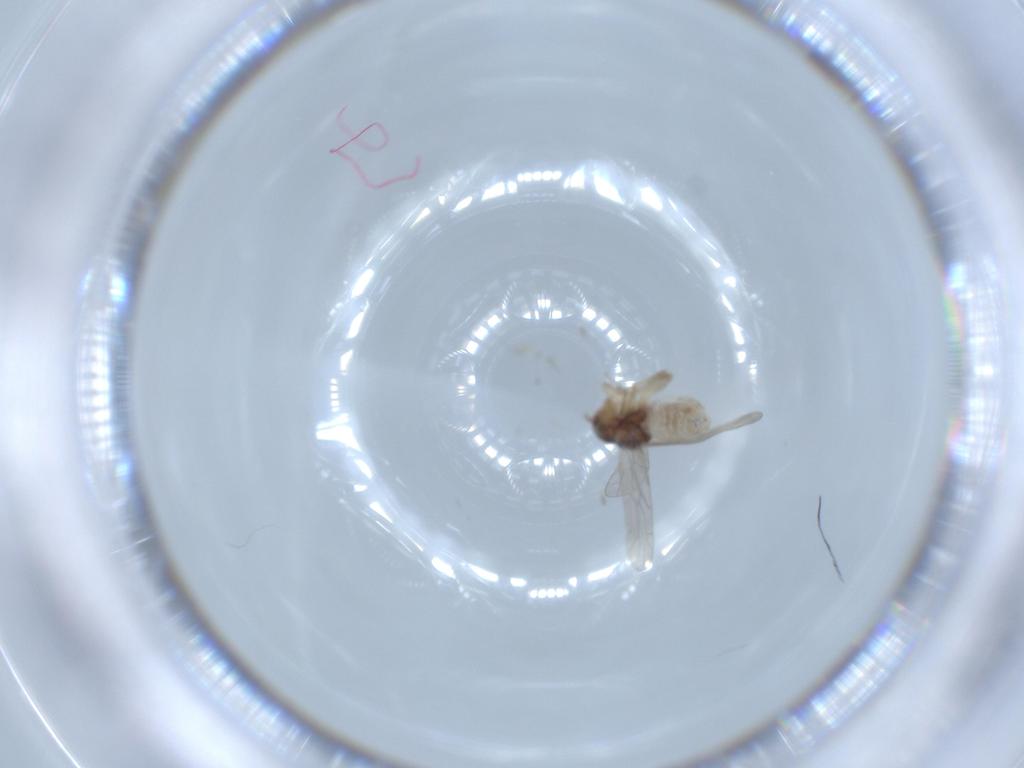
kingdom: Animalia
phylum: Arthropoda
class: Insecta
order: Psocodea
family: Peripsocidae
